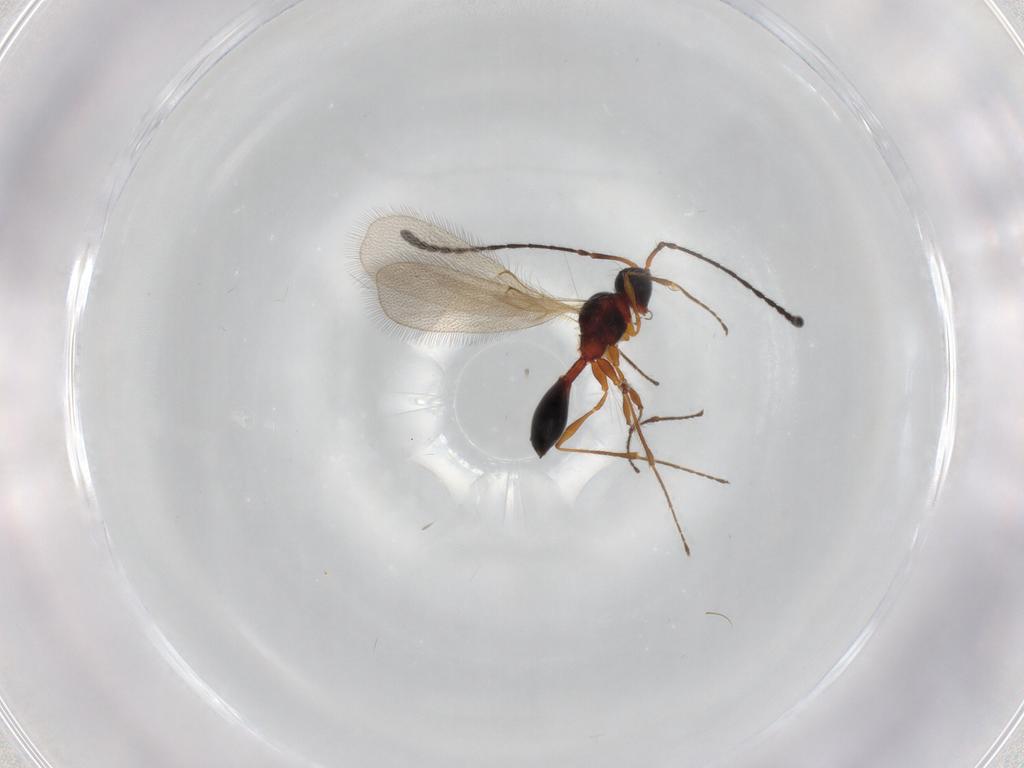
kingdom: Animalia
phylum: Arthropoda
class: Insecta
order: Hymenoptera
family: Diapriidae
